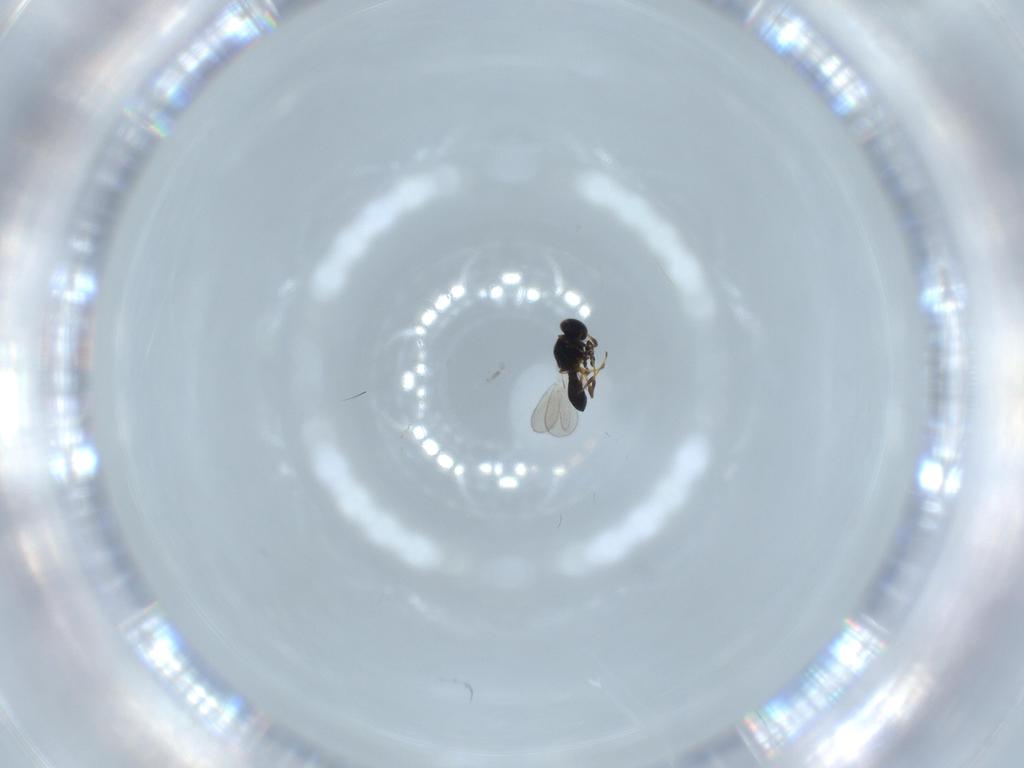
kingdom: Animalia
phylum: Arthropoda
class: Insecta
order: Hymenoptera
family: Platygastridae
